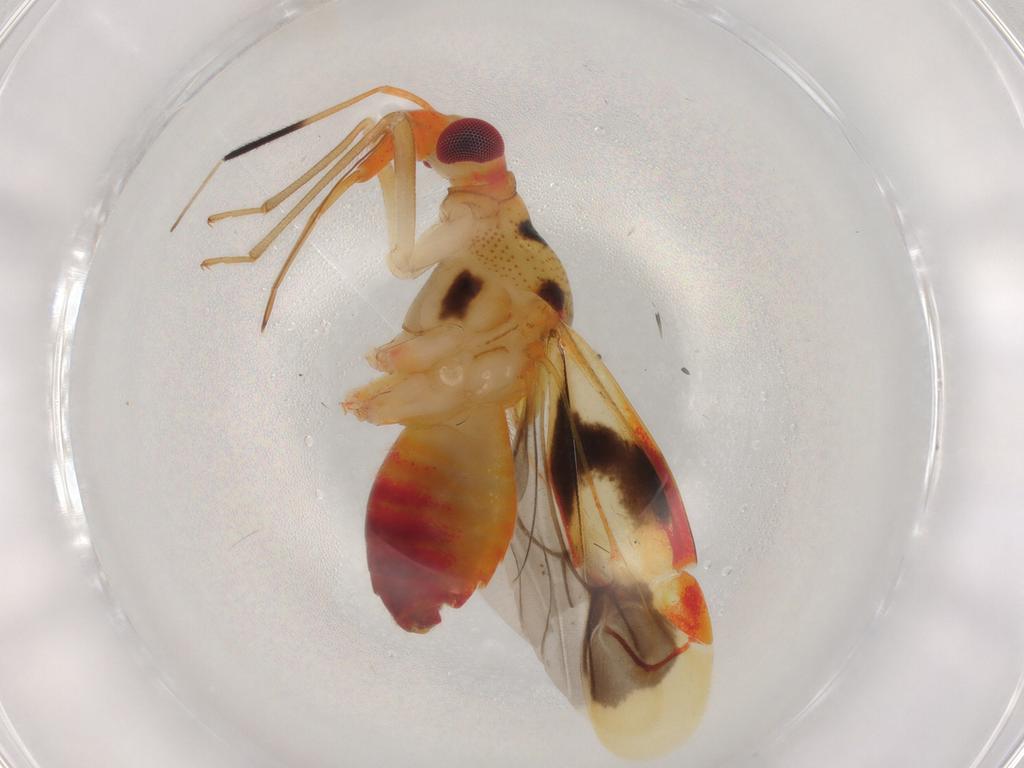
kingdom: Animalia
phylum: Arthropoda
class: Insecta
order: Hemiptera
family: Miridae
